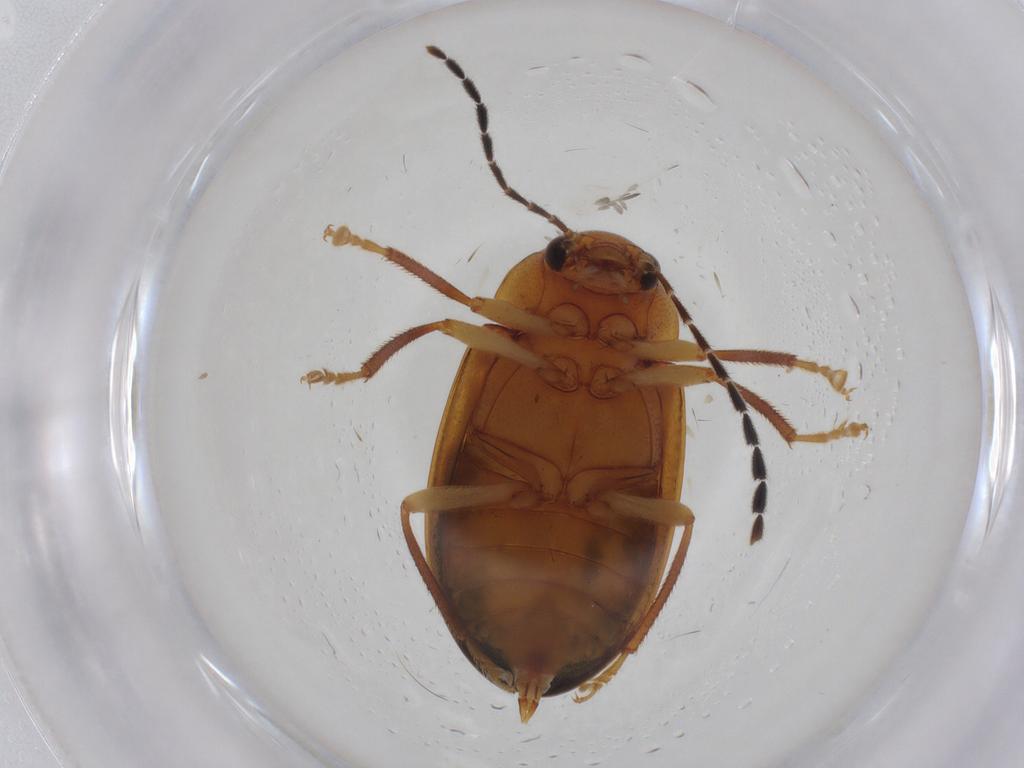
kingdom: Animalia
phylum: Arthropoda
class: Insecta
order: Coleoptera
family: Ptilodactylidae
